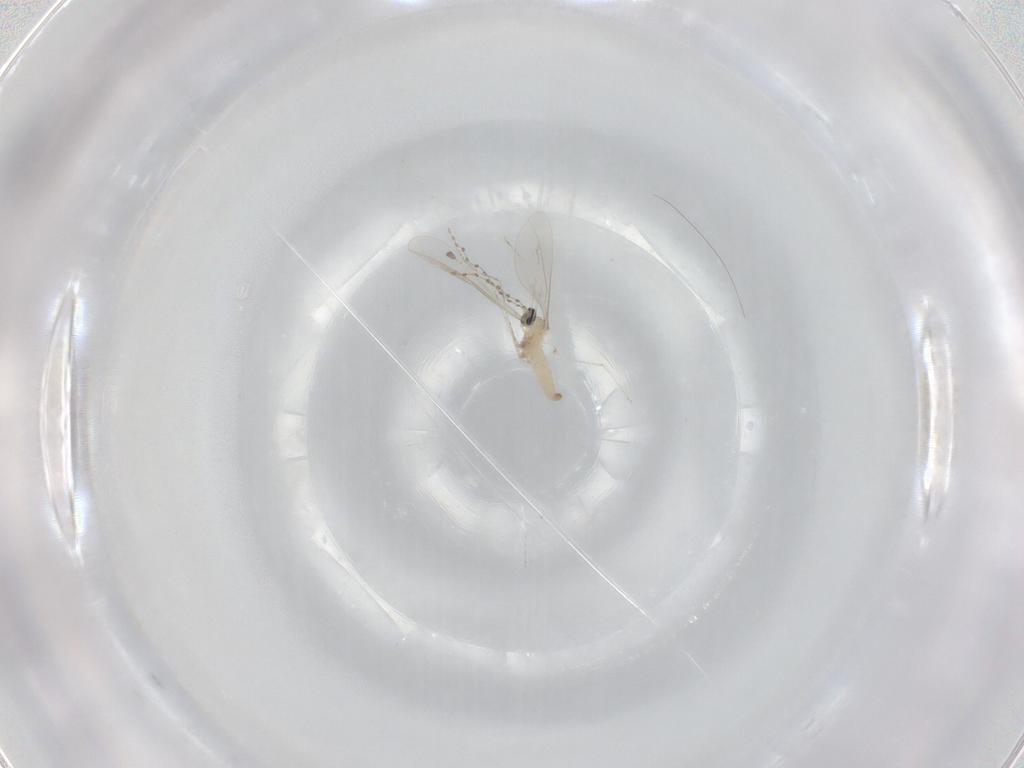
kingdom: Animalia
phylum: Arthropoda
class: Insecta
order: Diptera
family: Cecidomyiidae
